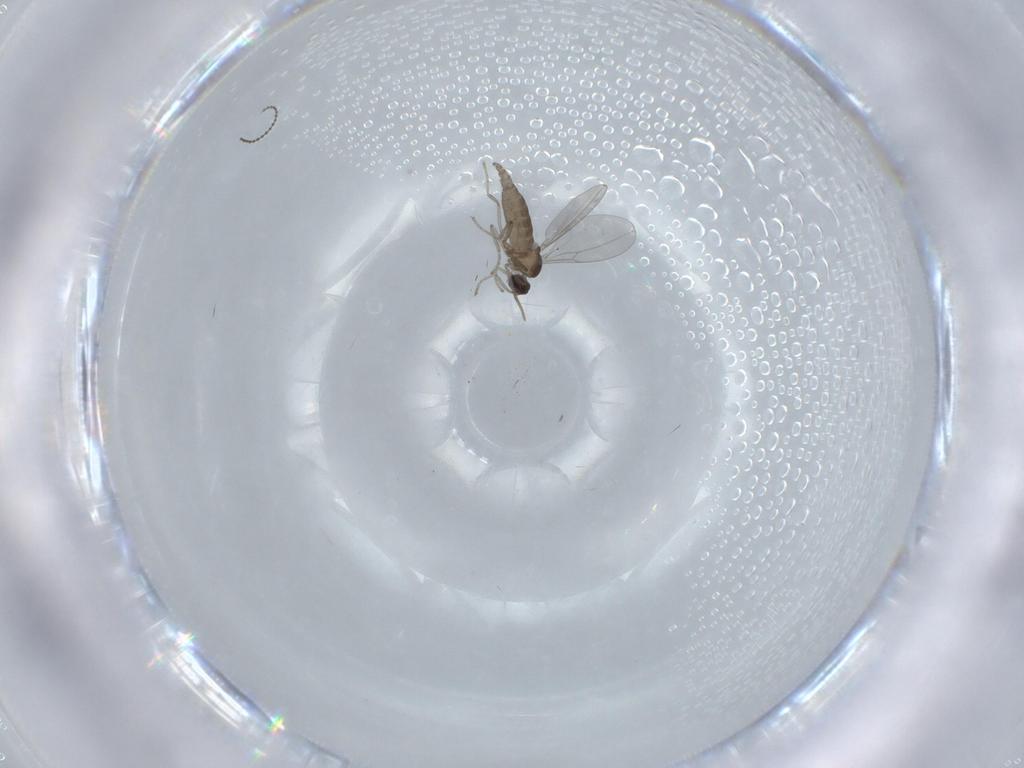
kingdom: Animalia
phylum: Arthropoda
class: Insecta
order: Diptera
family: Cecidomyiidae
